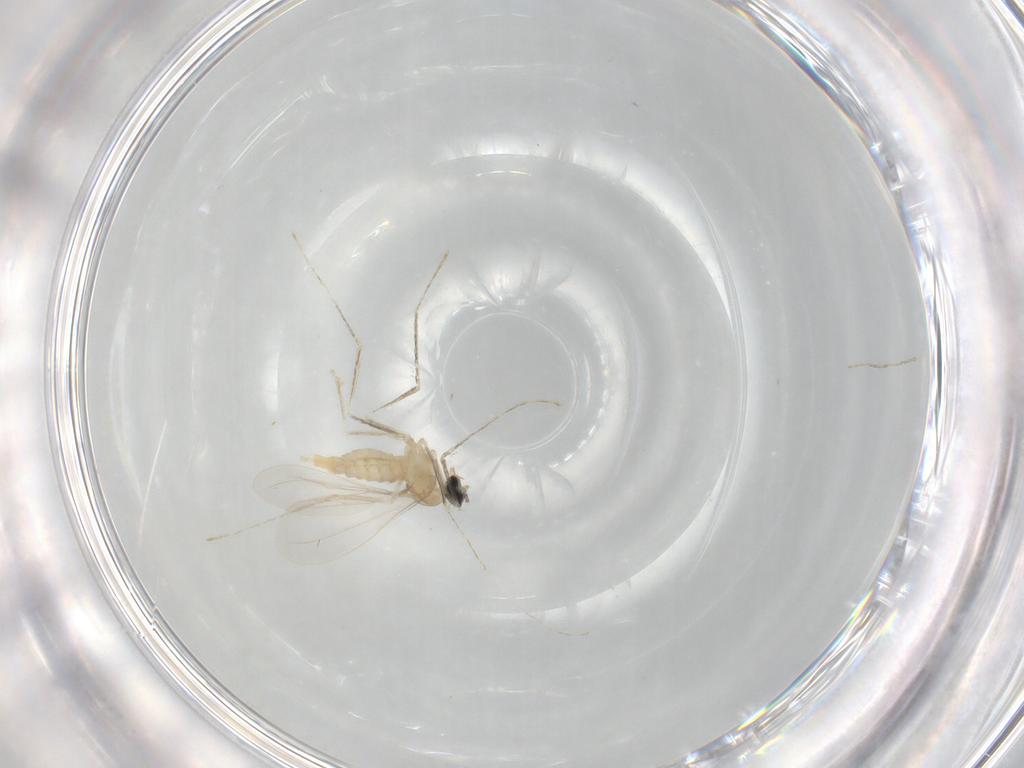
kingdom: Animalia
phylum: Arthropoda
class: Insecta
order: Diptera
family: Cecidomyiidae
